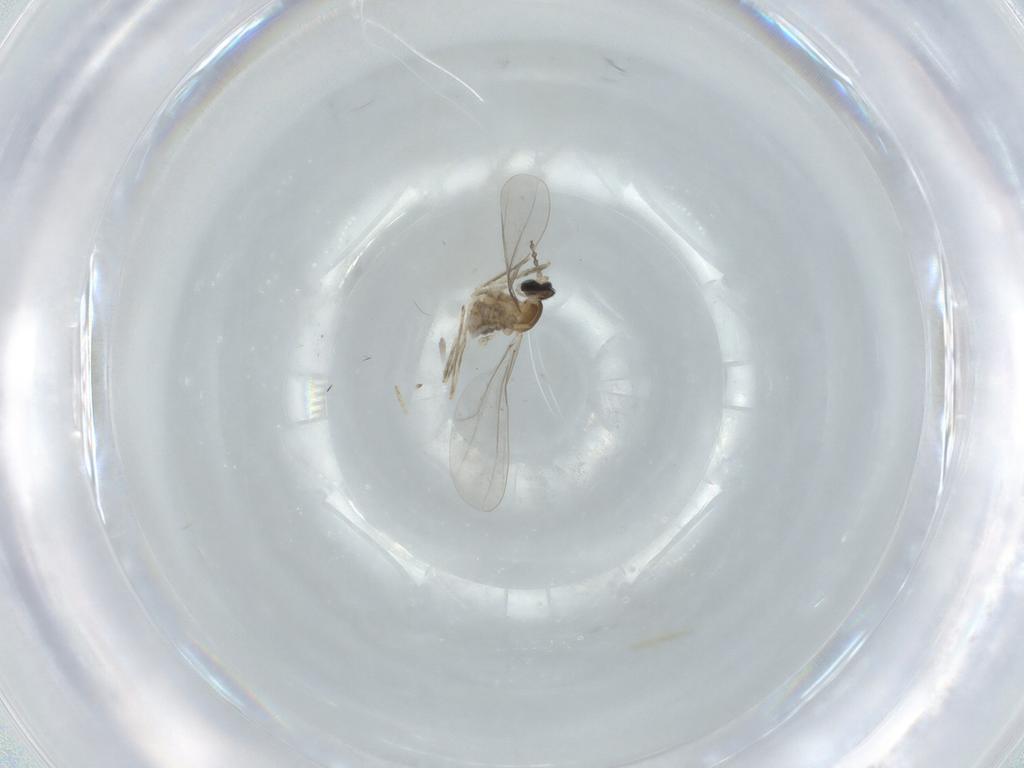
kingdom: Animalia
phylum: Arthropoda
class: Insecta
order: Diptera
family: Cecidomyiidae
